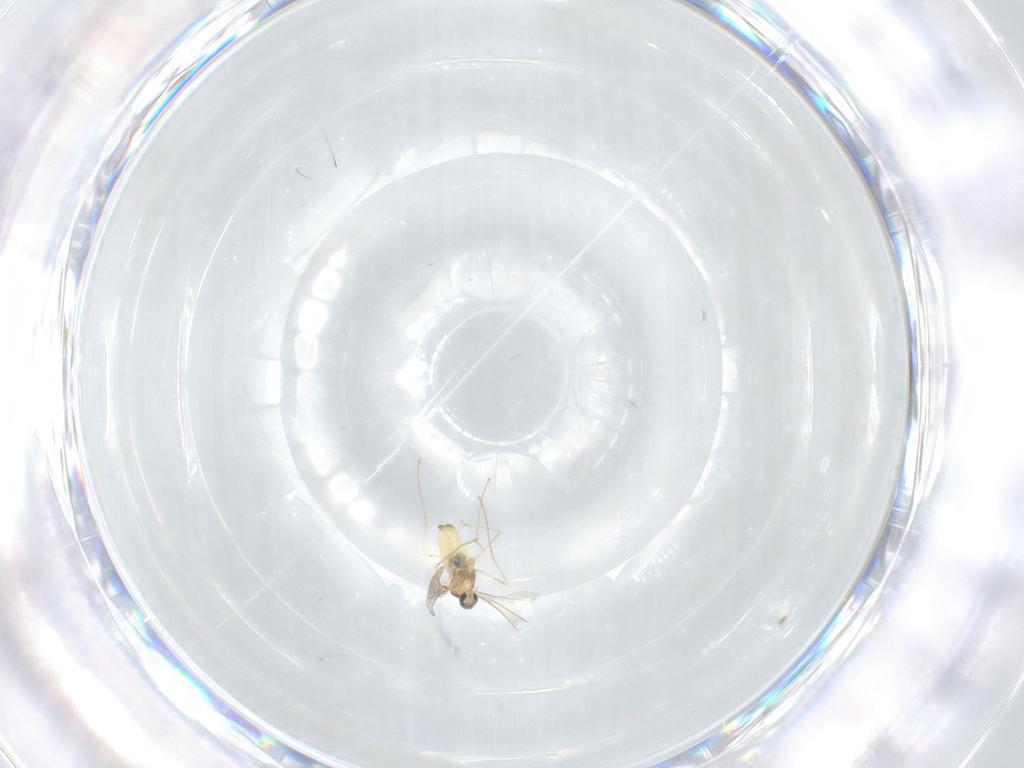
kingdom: Animalia
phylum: Arthropoda
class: Insecta
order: Diptera
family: Cecidomyiidae
